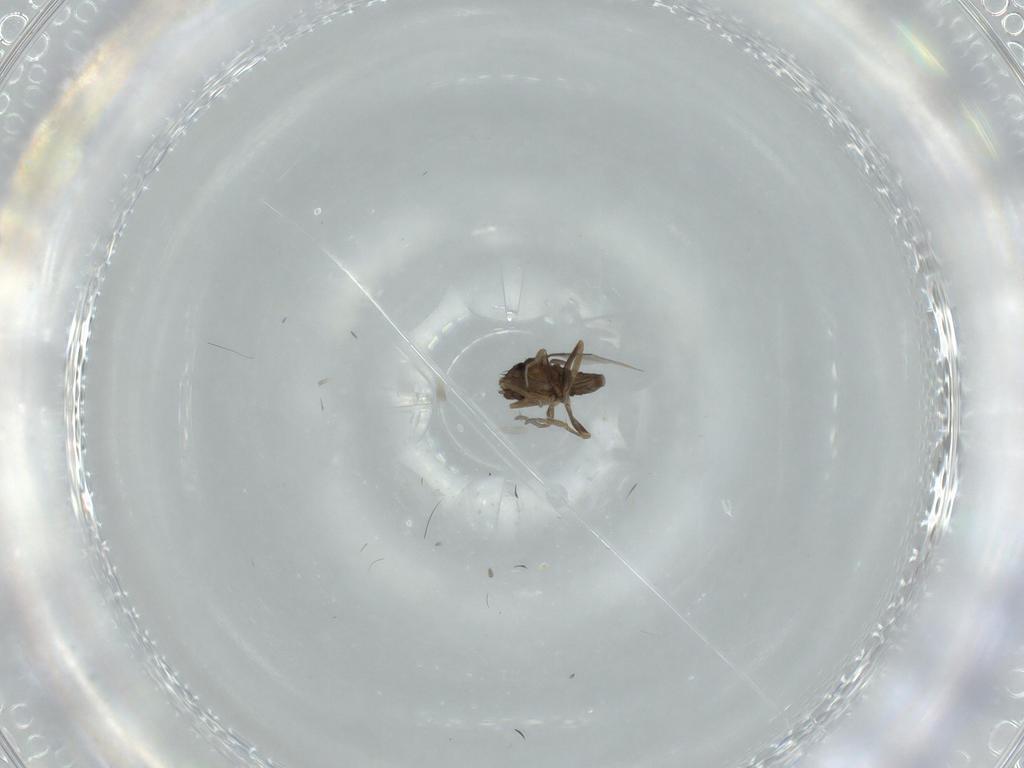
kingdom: Animalia
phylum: Arthropoda
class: Insecta
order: Diptera
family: Phoridae
